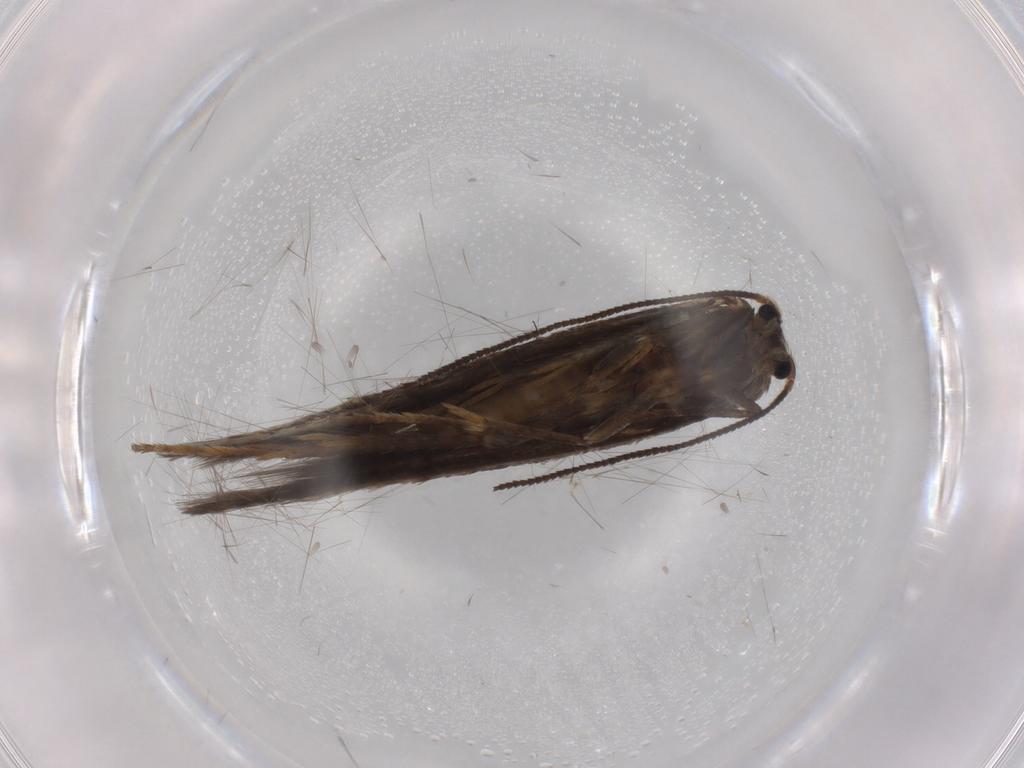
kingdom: Animalia
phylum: Arthropoda
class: Insecta
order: Lepidoptera
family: Nepticulidae
